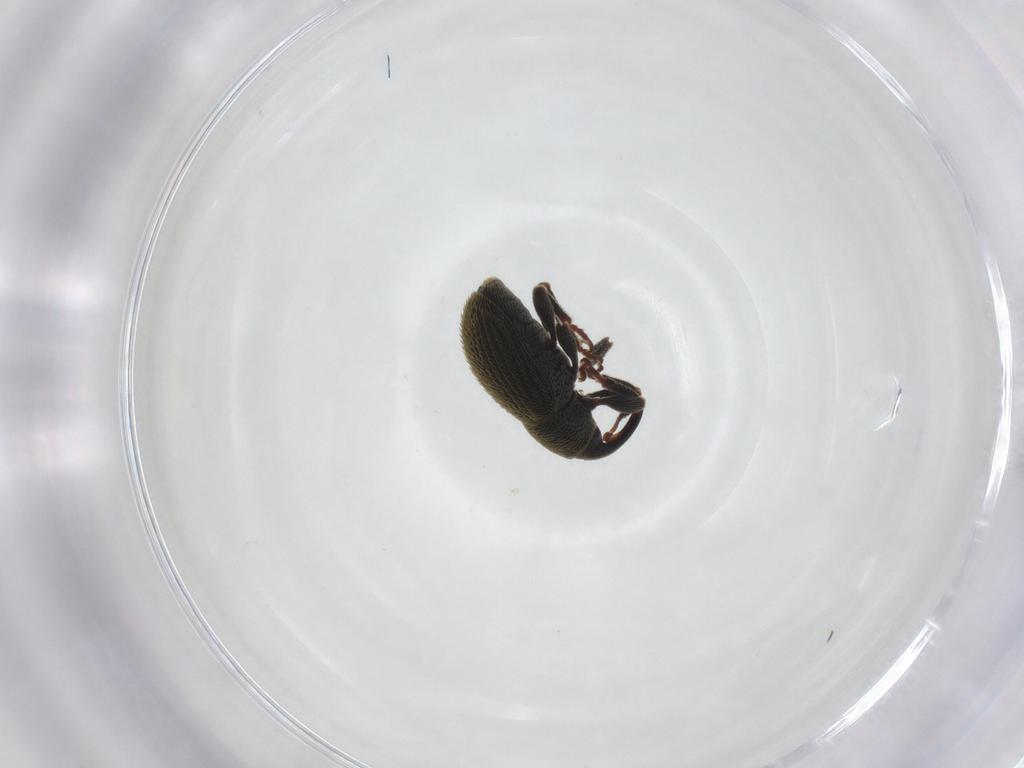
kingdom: Animalia
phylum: Arthropoda
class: Insecta
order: Coleoptera
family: Curculionidae
